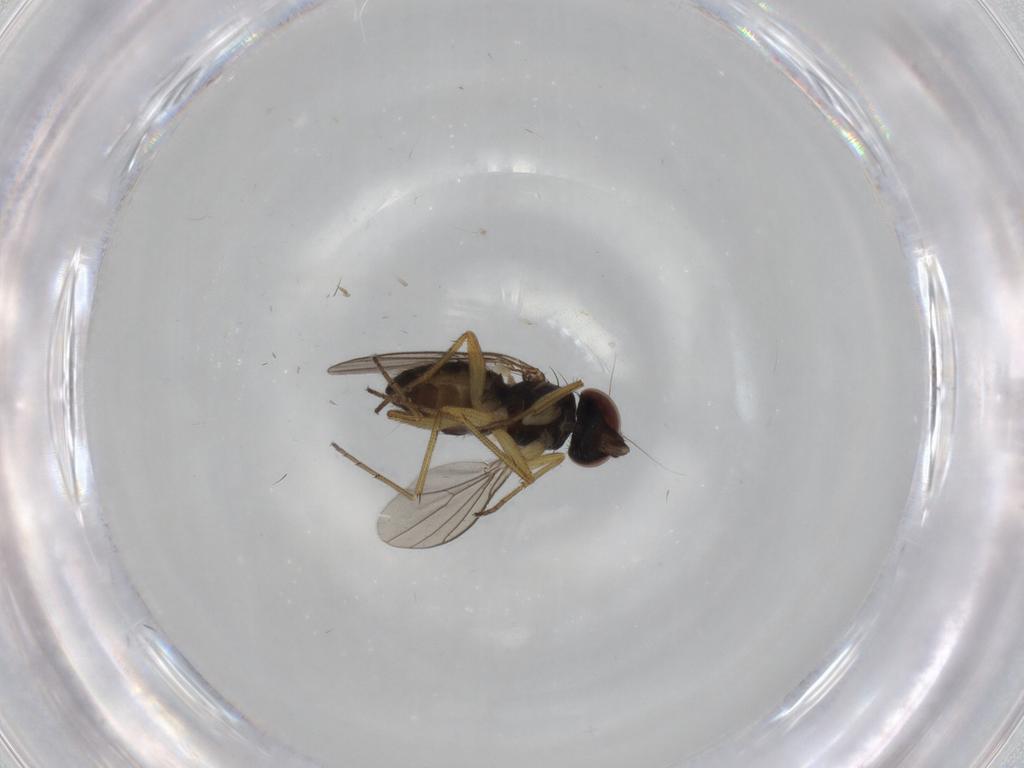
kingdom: Animalia
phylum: Arthropoda
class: Insecta
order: Diptera
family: Dolichopodidae
